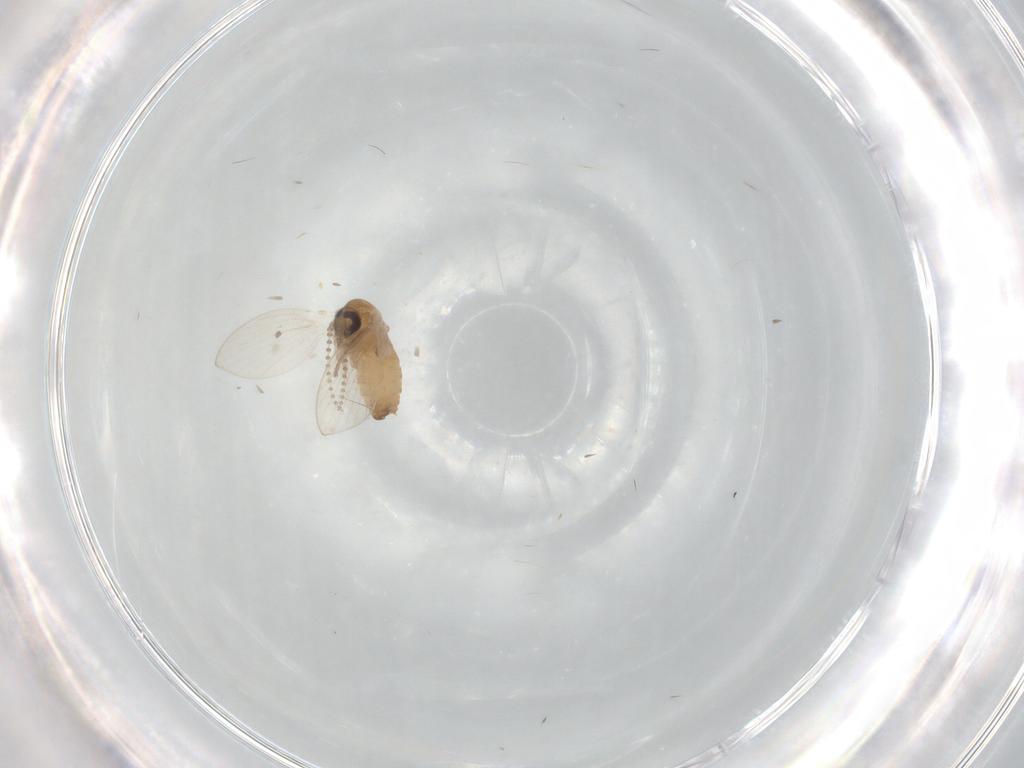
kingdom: Animalia
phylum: Arthropoda
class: Insecta
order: Diptera
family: Psychodidae
